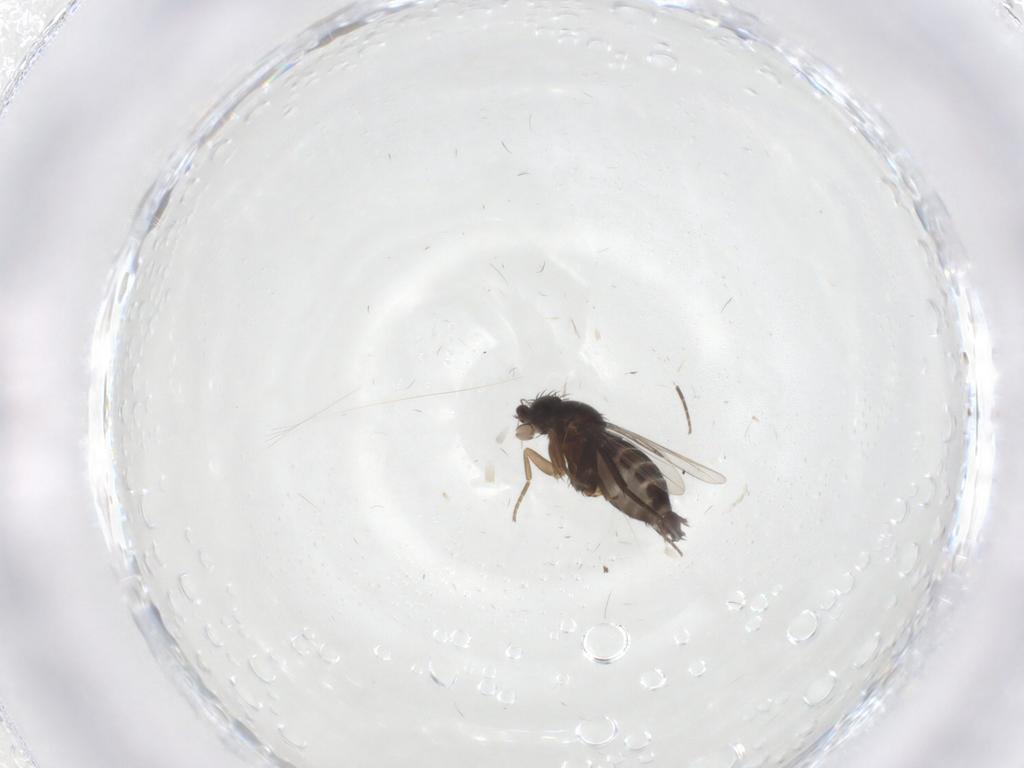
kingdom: Animalia
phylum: Arthropoda
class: Insecta
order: Diptera
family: Phoridae
